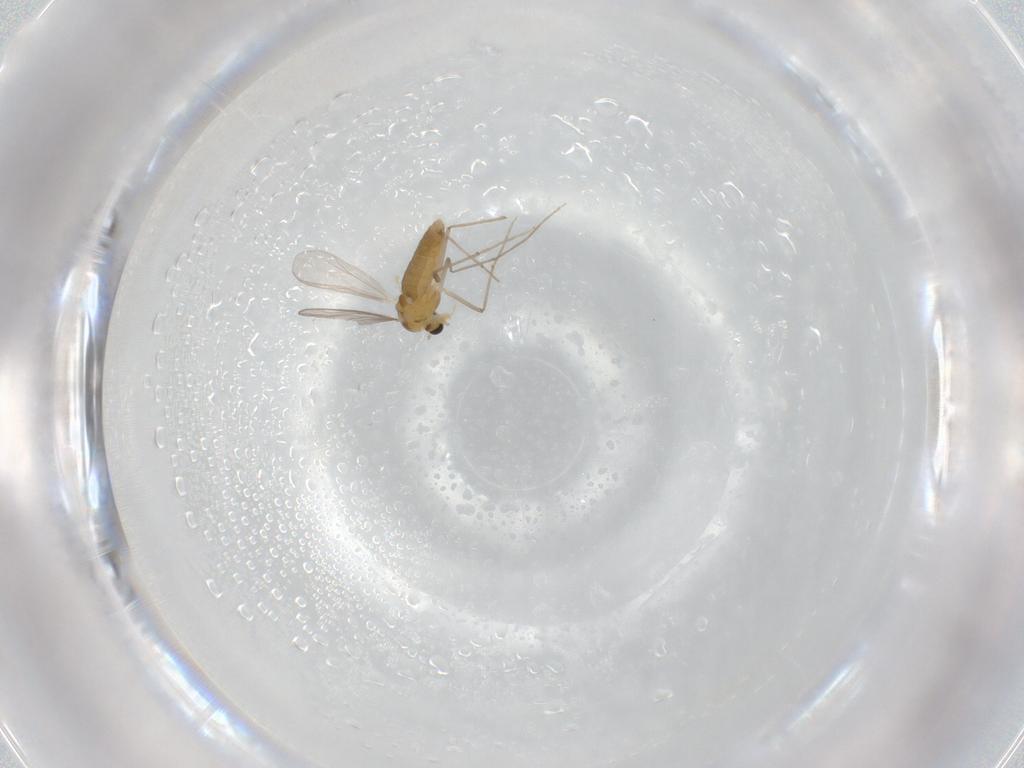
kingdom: Animalia
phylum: Arthropoda
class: Insecta
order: Diptera
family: Chironomidae
